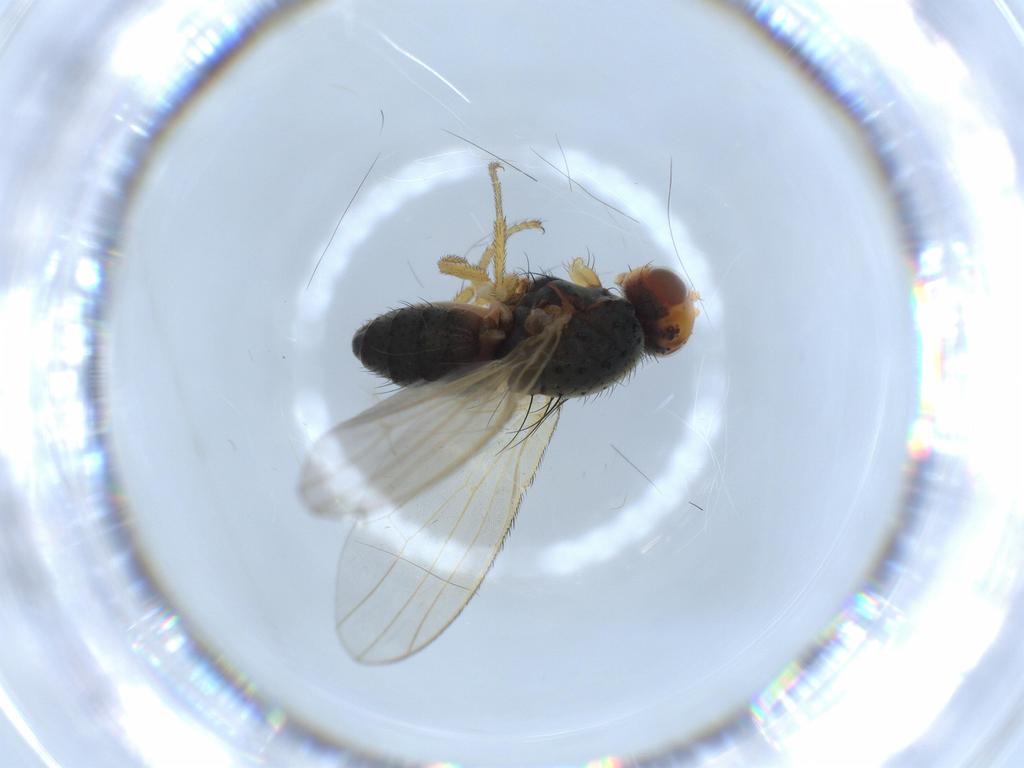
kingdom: Animalia
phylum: Arthropoda
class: Insecta
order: Diptera
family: Heleomyzidae
